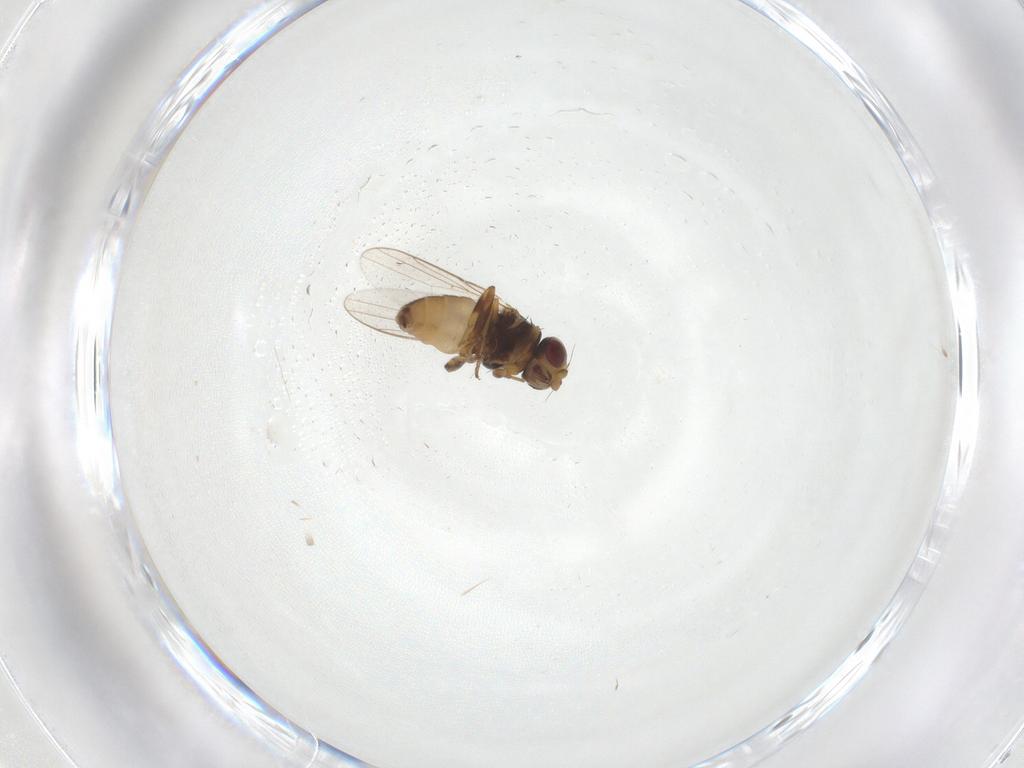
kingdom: Animalia
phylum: Arthropoda
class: Insecta
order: Diptera
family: Chloropidae
